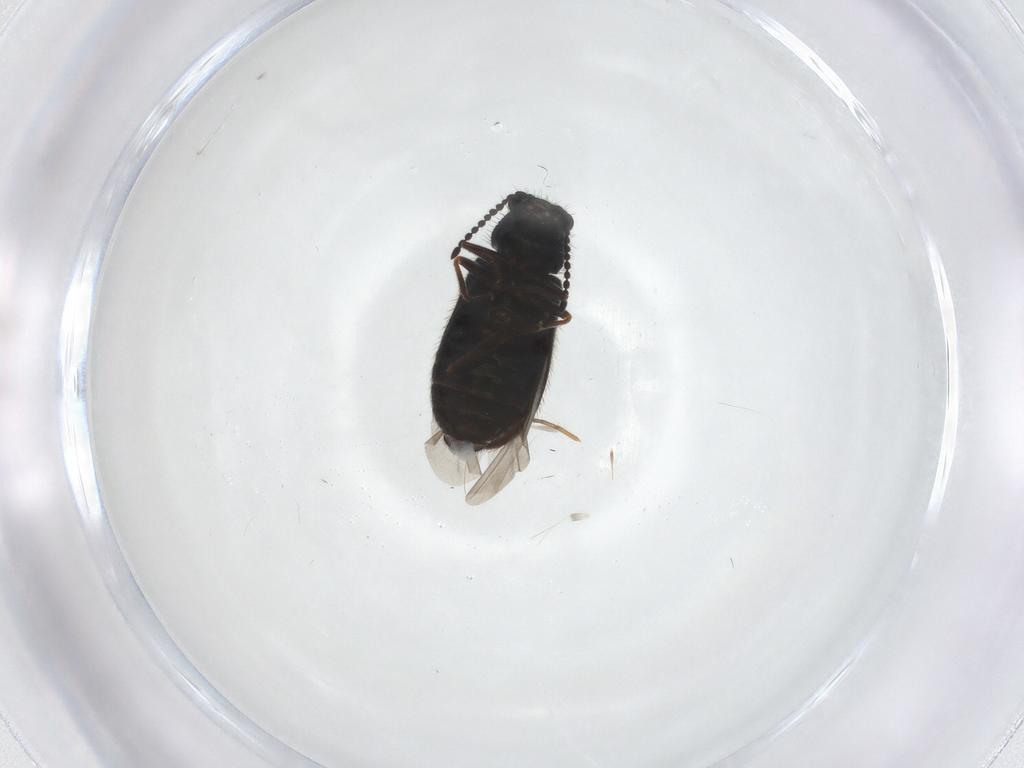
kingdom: Animalia
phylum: Arthropoda
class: Insecta
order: Coleoptera
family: Melyridae
